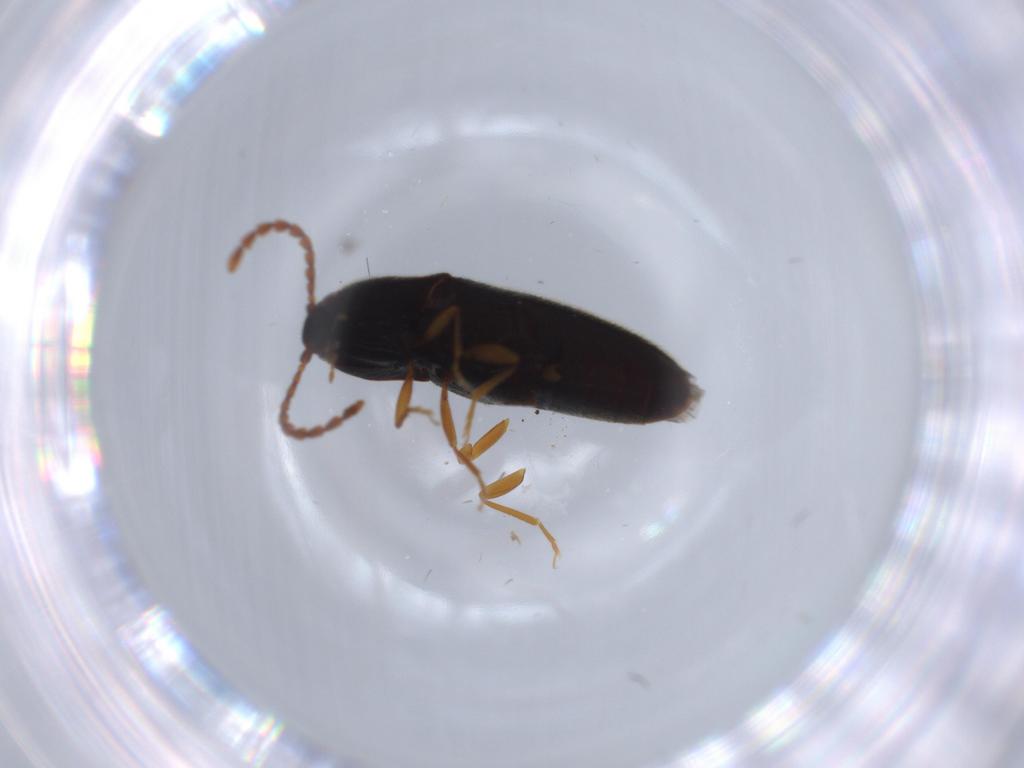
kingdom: Animalia
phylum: Arthropoda
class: Insecta
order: Coleoptera
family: Elateridae
